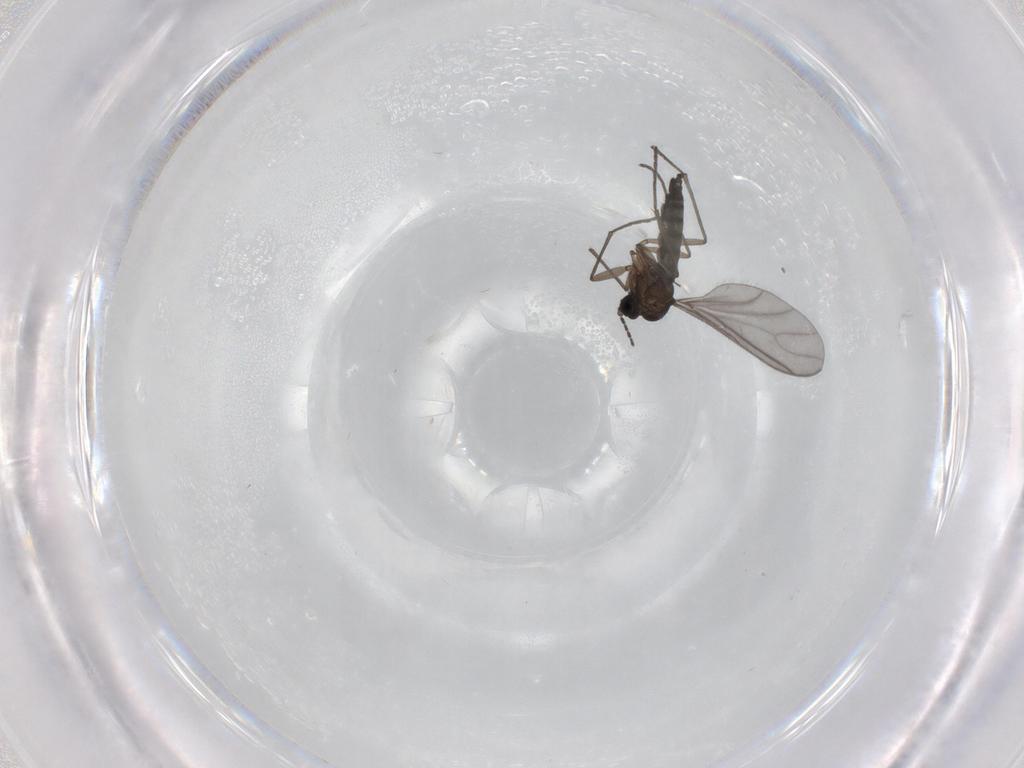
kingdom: Animalia
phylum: Arthropoda
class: Insecta
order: Diptera
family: Sciaridae
